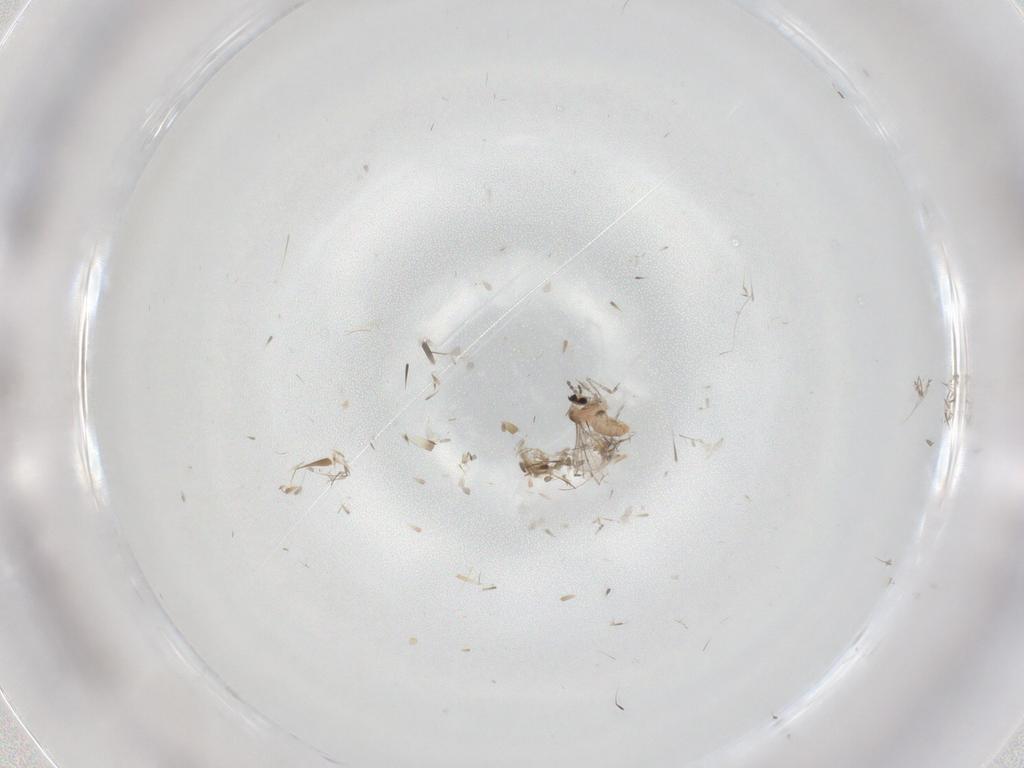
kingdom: Animalia
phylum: Arthropoda
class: Insecta
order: Diptera
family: Cecidomyiidae
